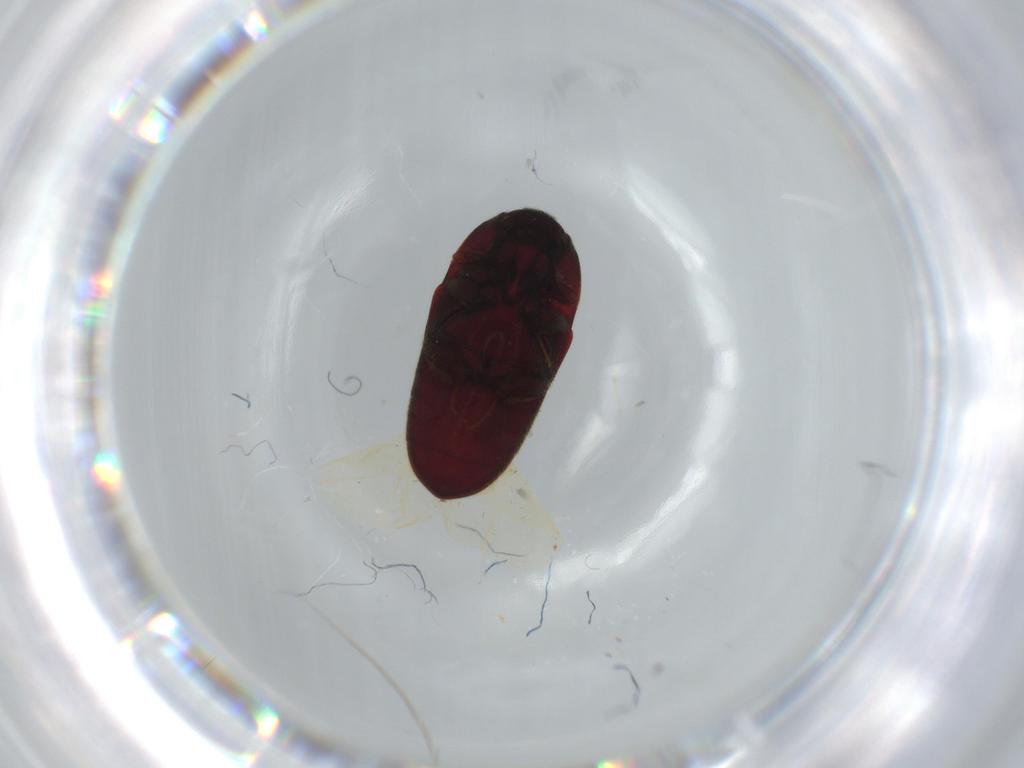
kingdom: Animalia
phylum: Arthropoda
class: Insecta
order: Coleoptera
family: Throscidae
